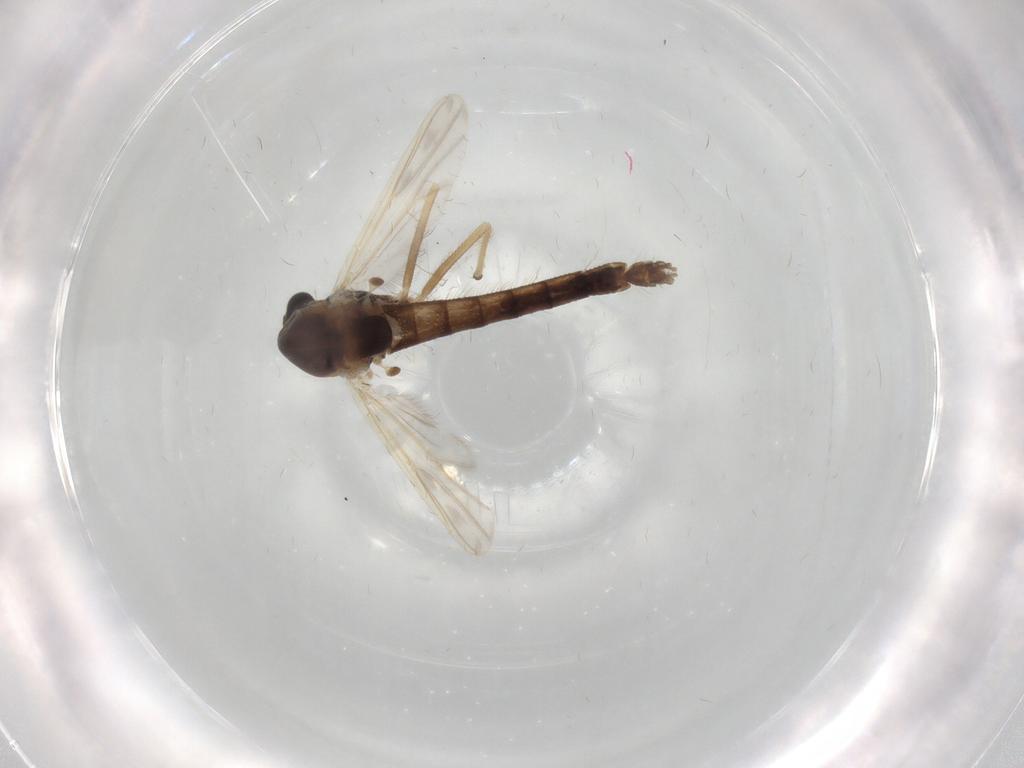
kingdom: Animalia
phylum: Arthropoda
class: Insecta
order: Diptera
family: Chironomidae
